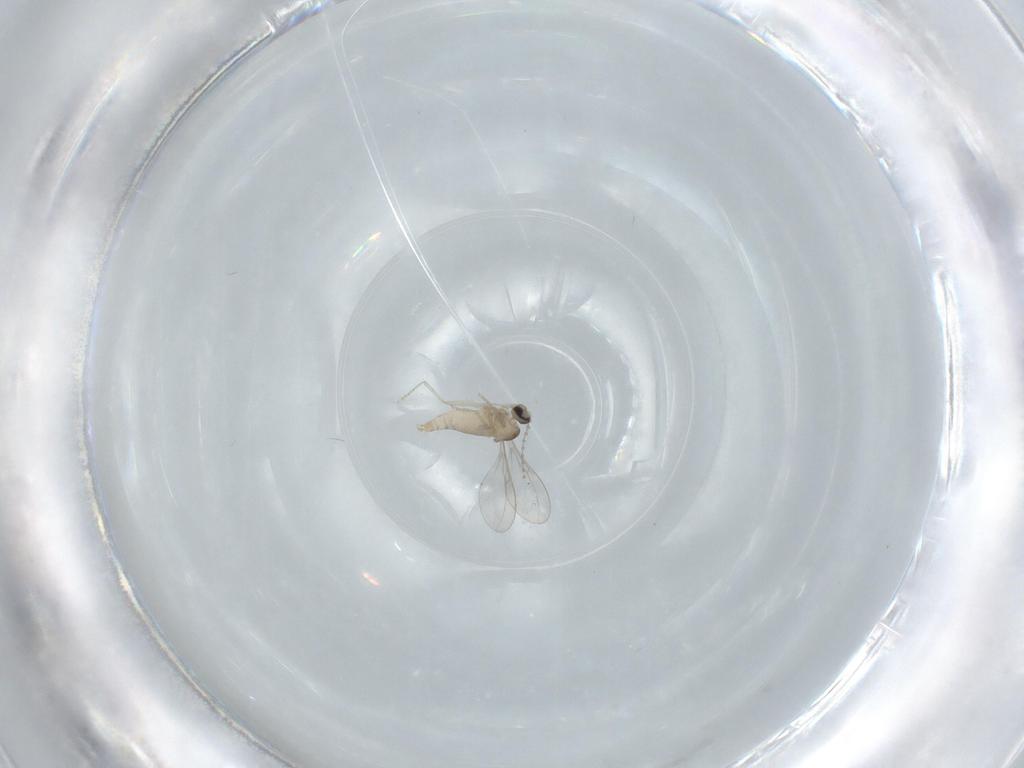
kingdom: Animalia
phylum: Arthropoda
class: Insecta
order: Diptera
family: Cecidomyiidae
